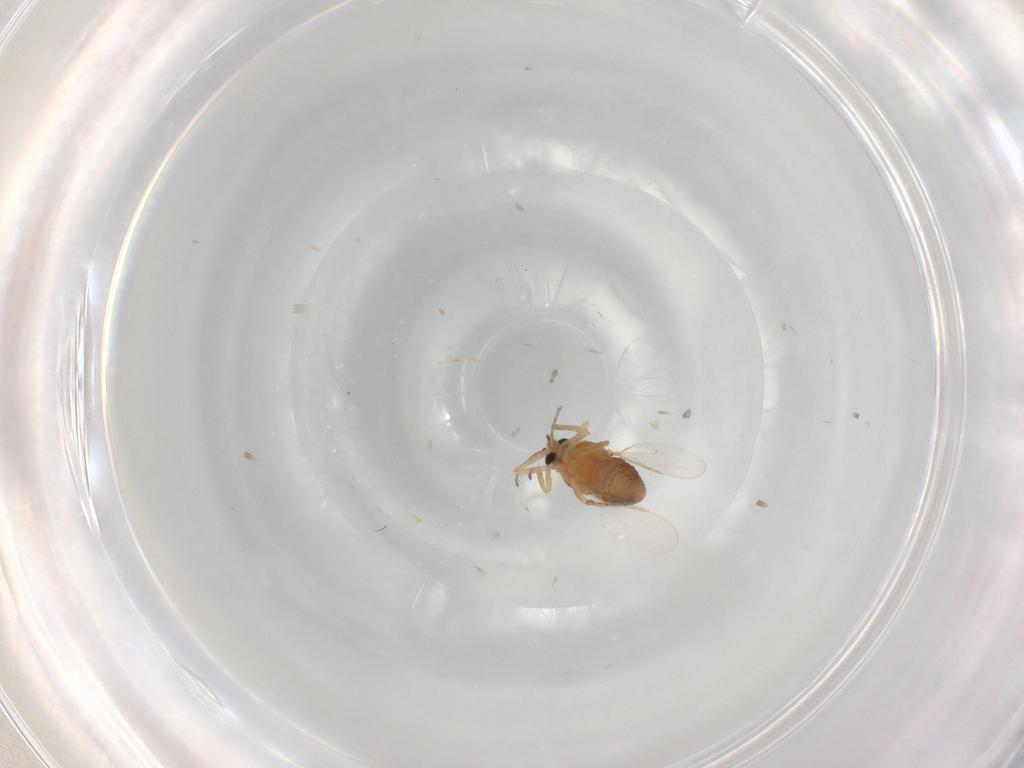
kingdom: Animalia
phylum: Arthropoda
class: Insecta
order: Diptera
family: Ceratopogonidae
